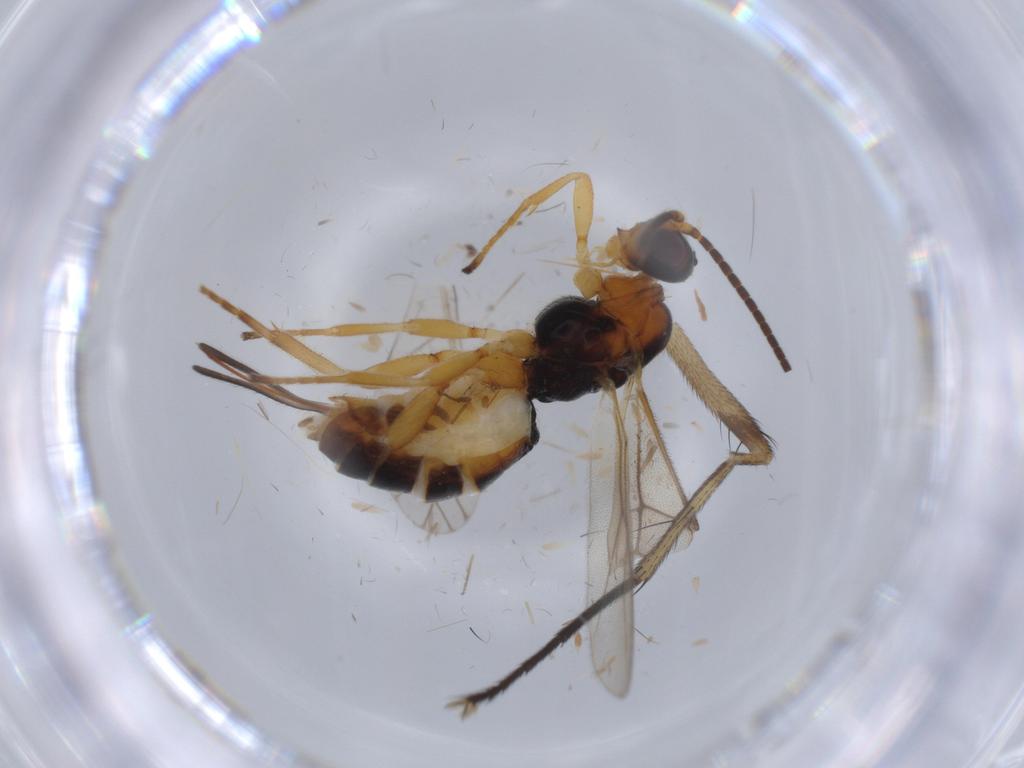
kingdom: Animalia
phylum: Arthropoda
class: Insecta
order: Hymenoptera
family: Braconidae
